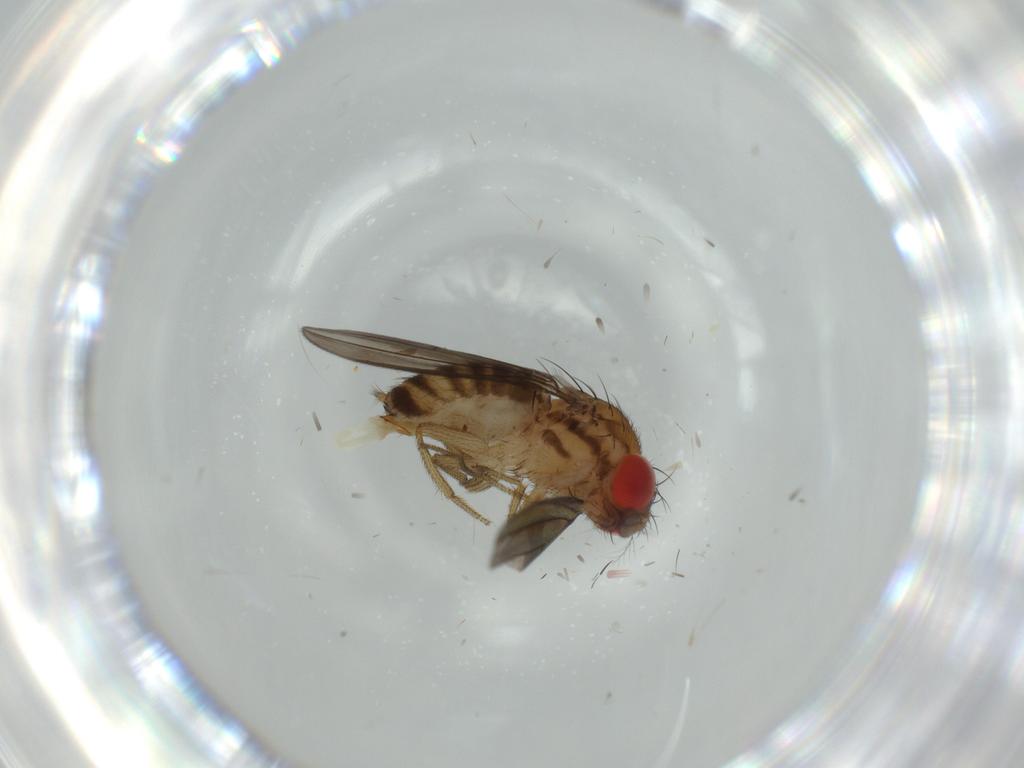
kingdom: Animalia
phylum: Arthropoda
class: Insecta
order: Diptera
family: Drosophilidae
